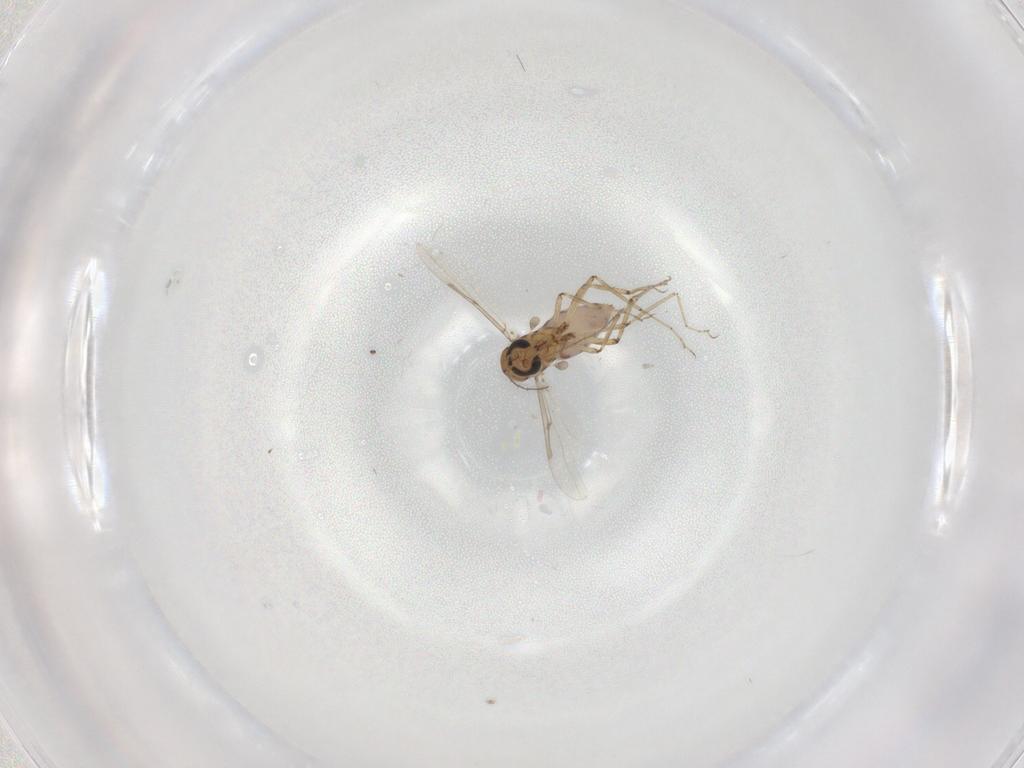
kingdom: Animalia
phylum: Arthropoda
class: Insecta
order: Diptera
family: Ceratopogonidae
